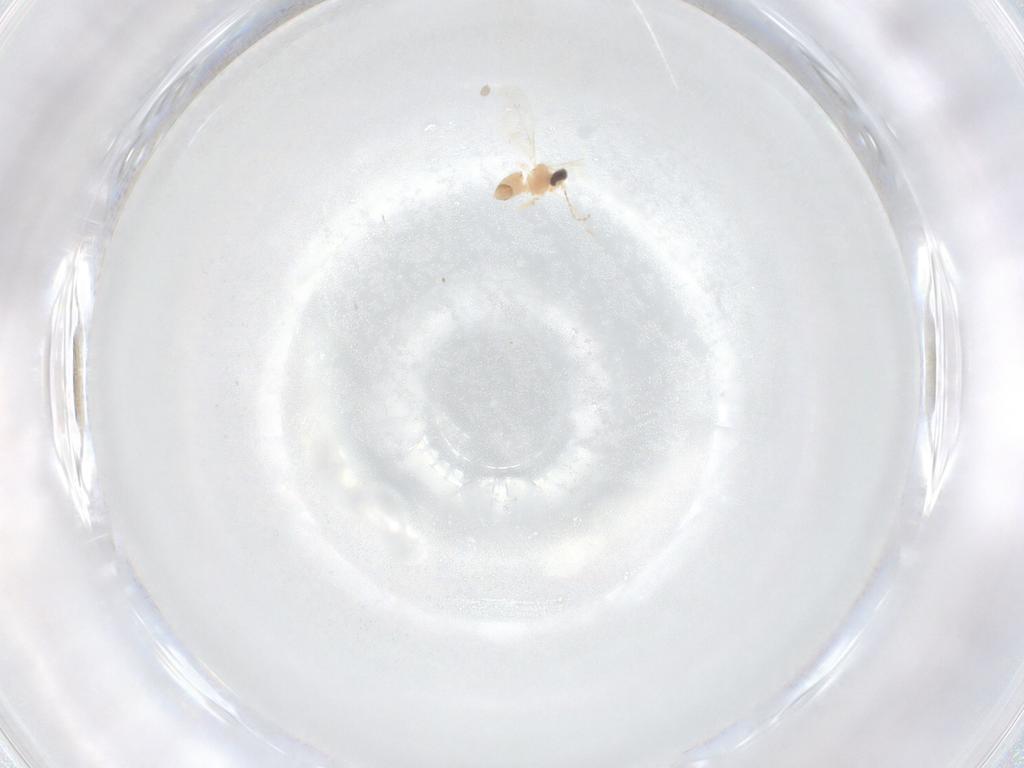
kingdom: Animalia
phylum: Arthropoda
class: Insecta
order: Diptera
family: Cecidomyiidae
